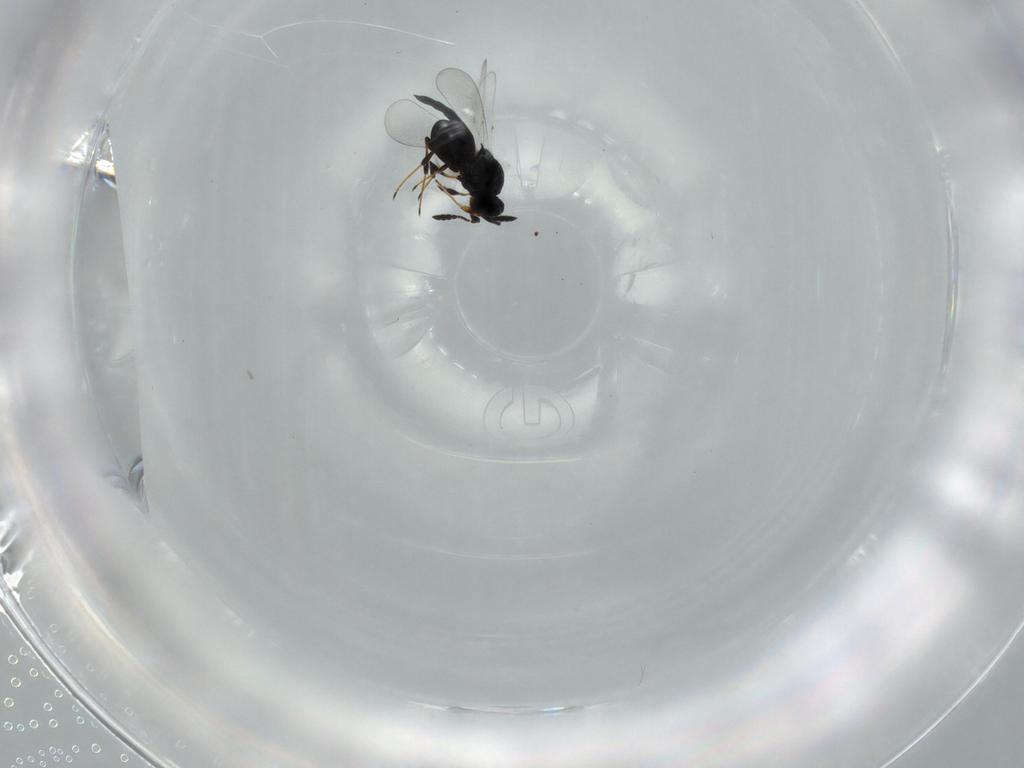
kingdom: Animalia
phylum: Arthropoda
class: Insecta
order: Hymenoptera
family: Platygastridae
